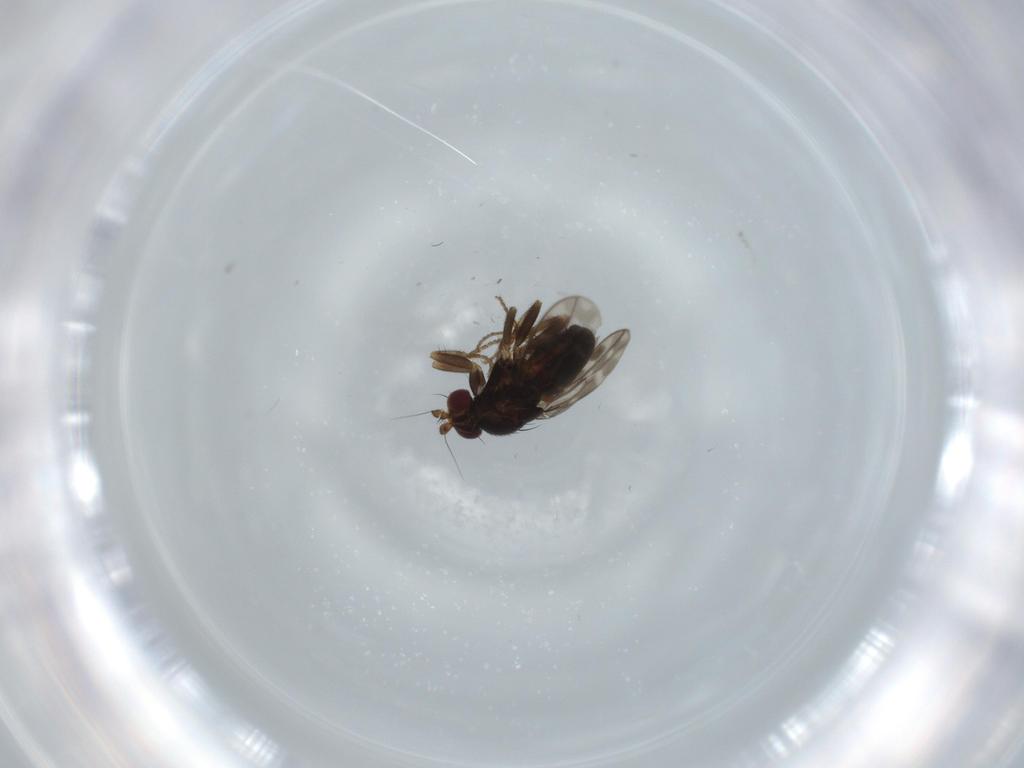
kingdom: Animalia
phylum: Arthropoda
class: Insecta
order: Diptera
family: Sphaeroceridae
